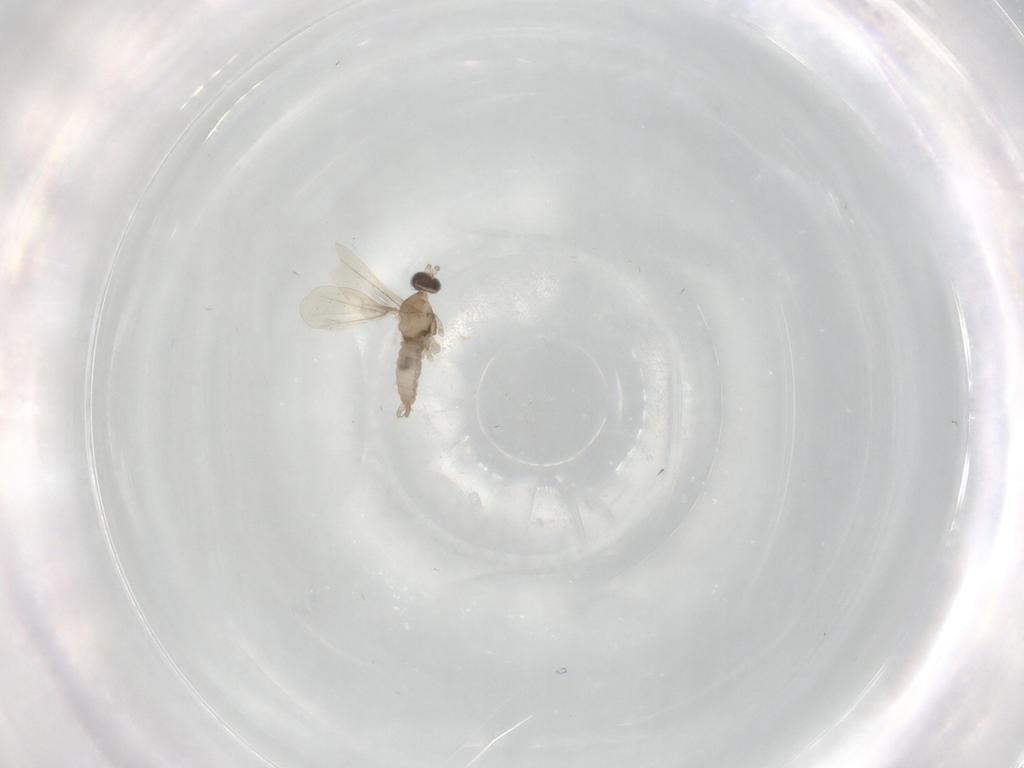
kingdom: Animalia
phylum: Arthropoda
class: Insecta
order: Diptera
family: Cecidomyiidae
